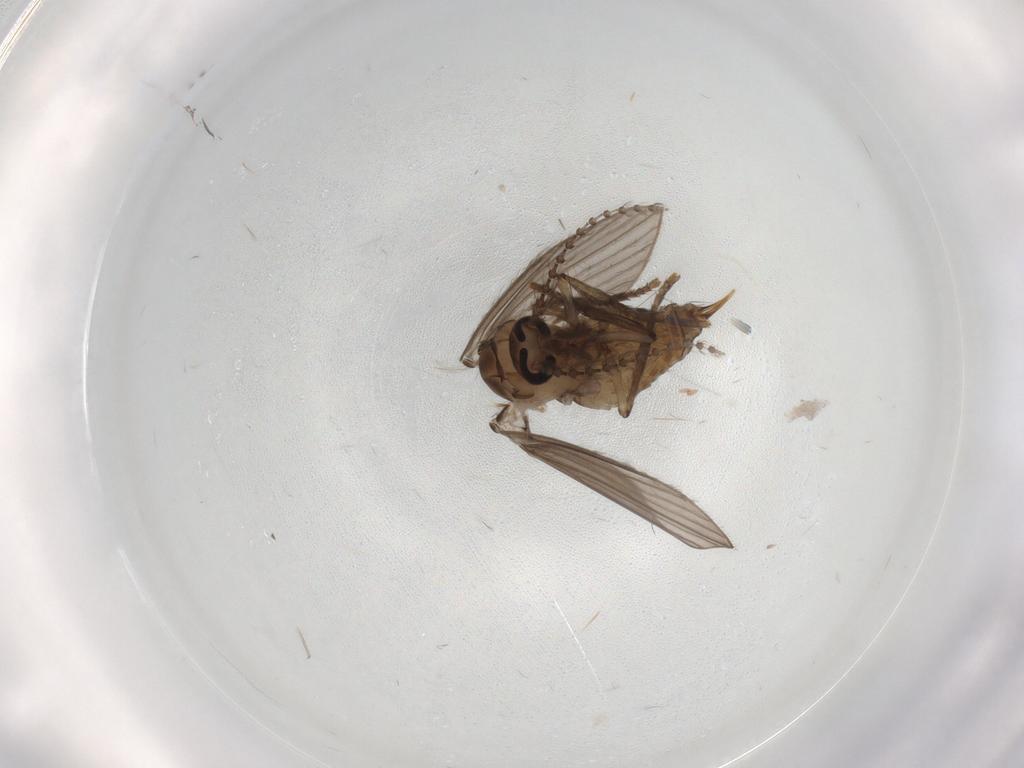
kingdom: Animalia
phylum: Arthropoda
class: Insecta
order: Diptera
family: Psychodidae
